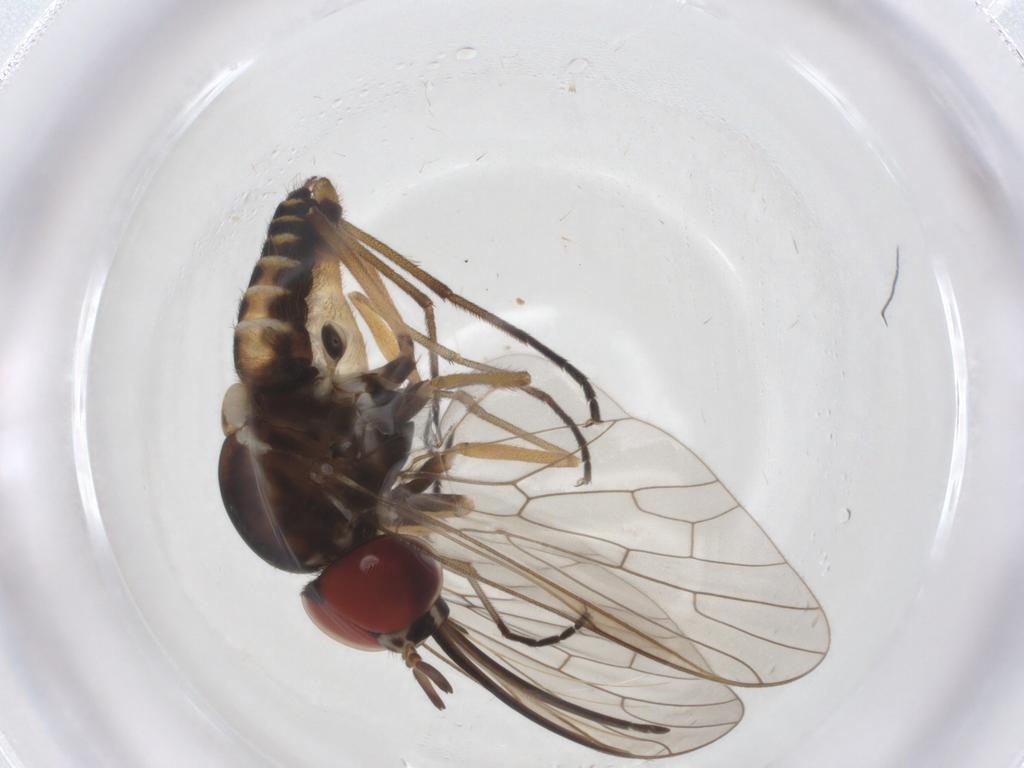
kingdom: Animalia
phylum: Arthropoda
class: Insecta
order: Diptera
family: Bombyliidae
